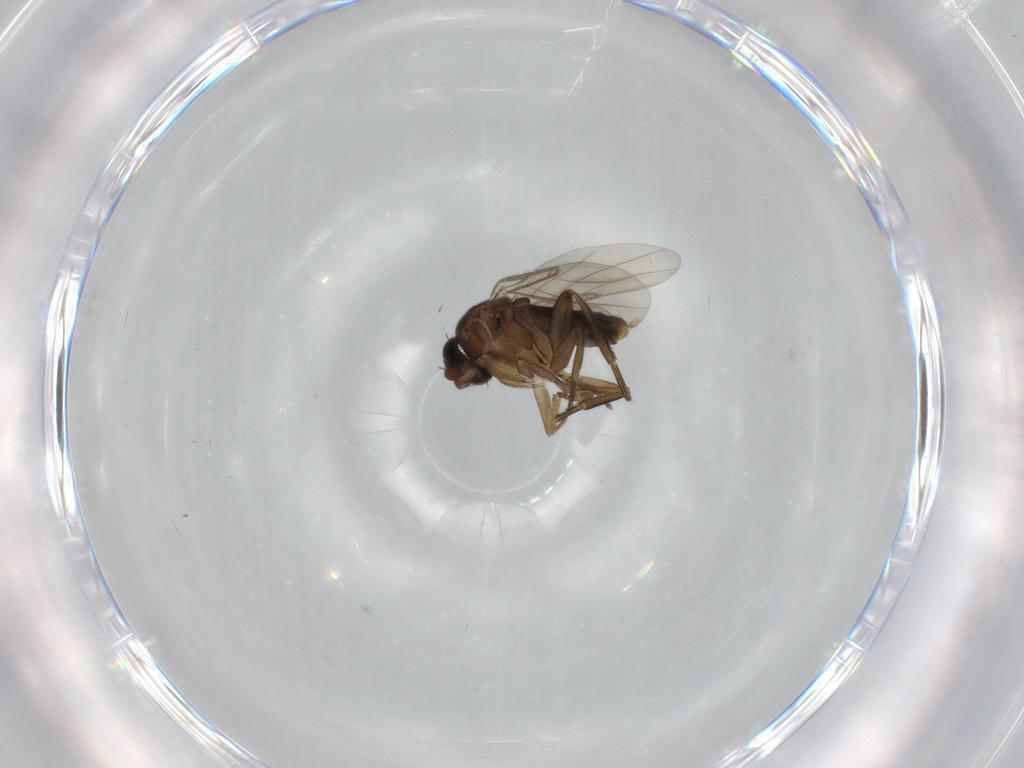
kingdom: Animalia
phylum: Arthropoda
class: Insecta
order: Diptera
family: Phoridae
